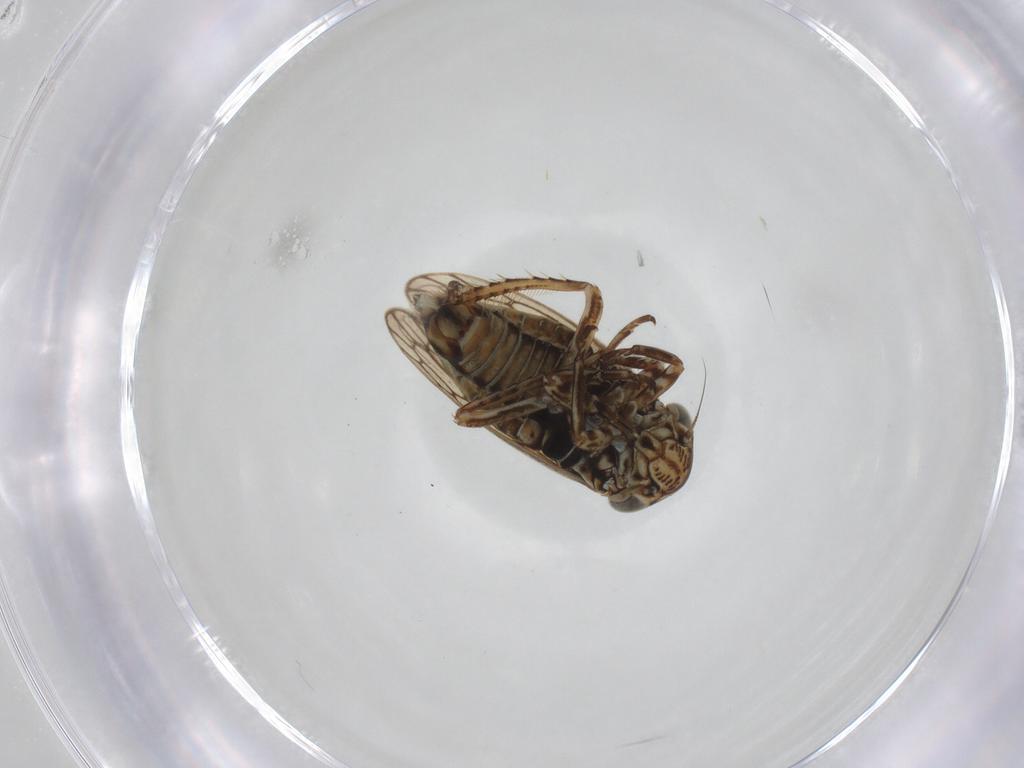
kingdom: Animalia
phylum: Arthropoda
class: Insecta
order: Hemiptera
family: Cicadellidae
